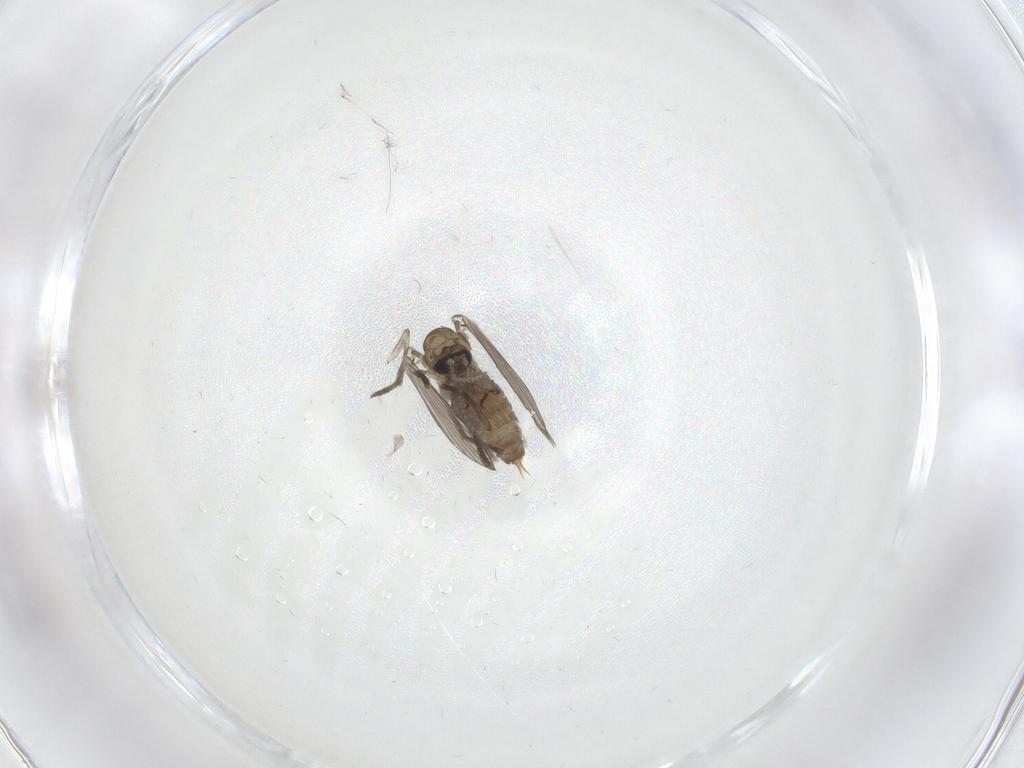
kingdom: Animalia
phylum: Arthropoda
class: Insecta
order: Diptera
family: Psychodidae
